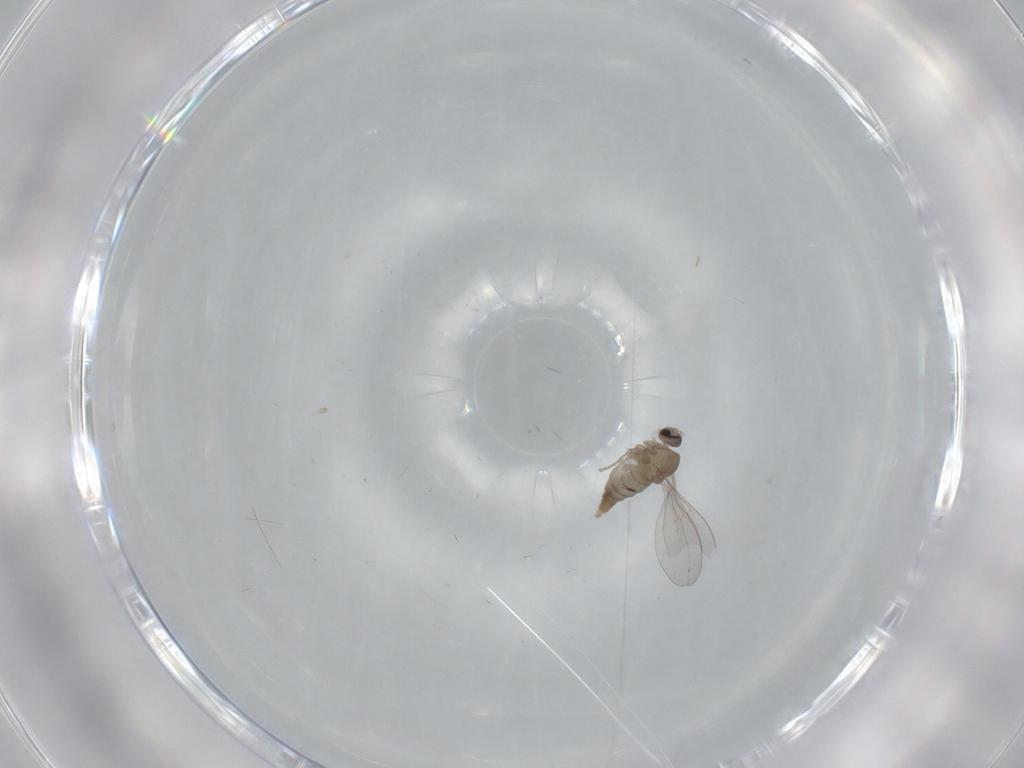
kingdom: Animalia
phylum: Arthropoda
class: Insecta
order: Diptera
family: Cecidomyiidae
